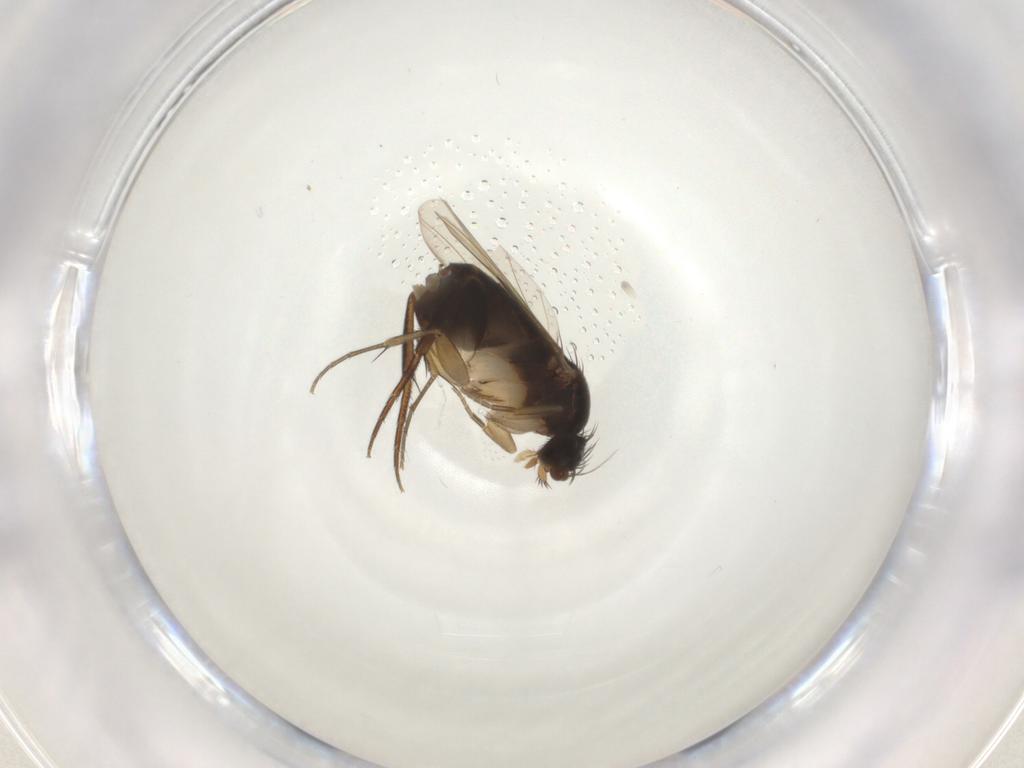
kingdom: Animalia
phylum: Arthropoda
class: Insecta
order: Diptera
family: Phoridae
